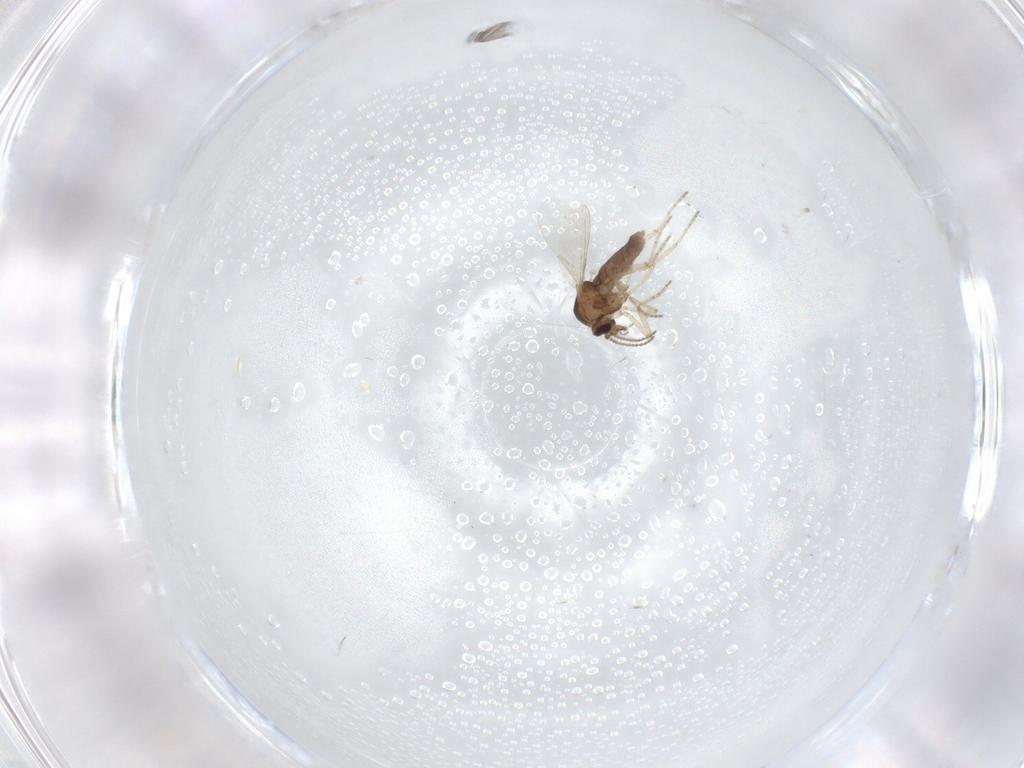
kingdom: Animalia
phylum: Arthropoda
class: Insecta
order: Diptera
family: Ceratopogonidae
